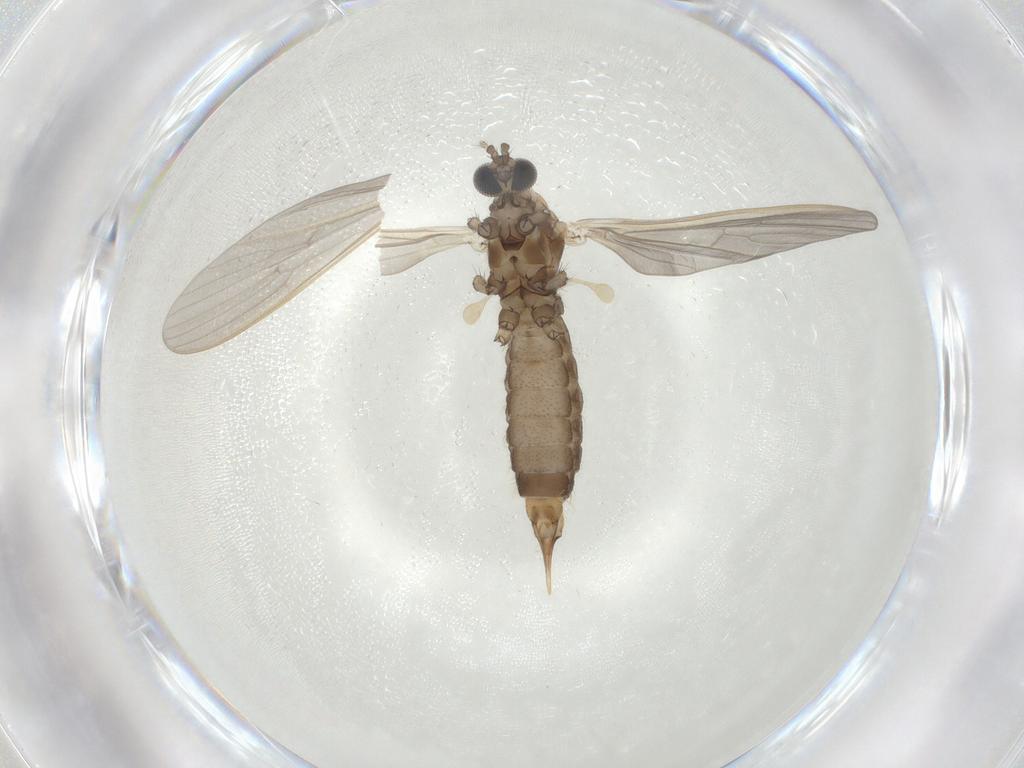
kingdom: Animalia
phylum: Arthropoda
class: Insecta
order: Diptera
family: Limoniidae
